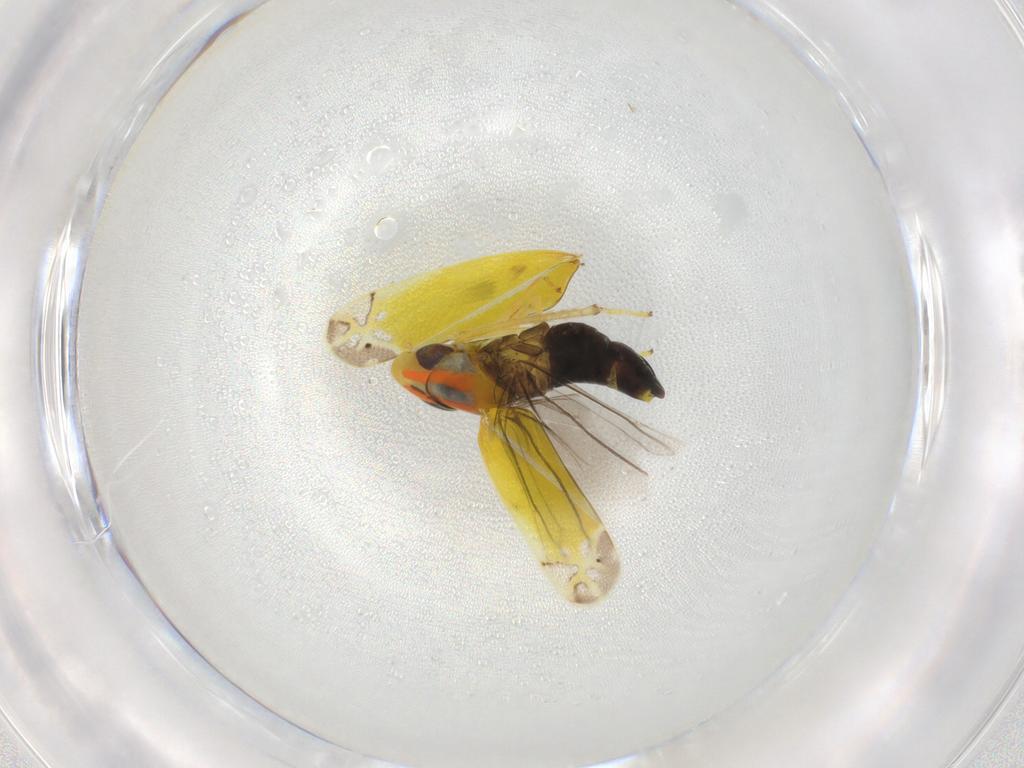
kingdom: Animalia
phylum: Arthropoda
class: Insecta
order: Hemiptera
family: Cicadellidae
